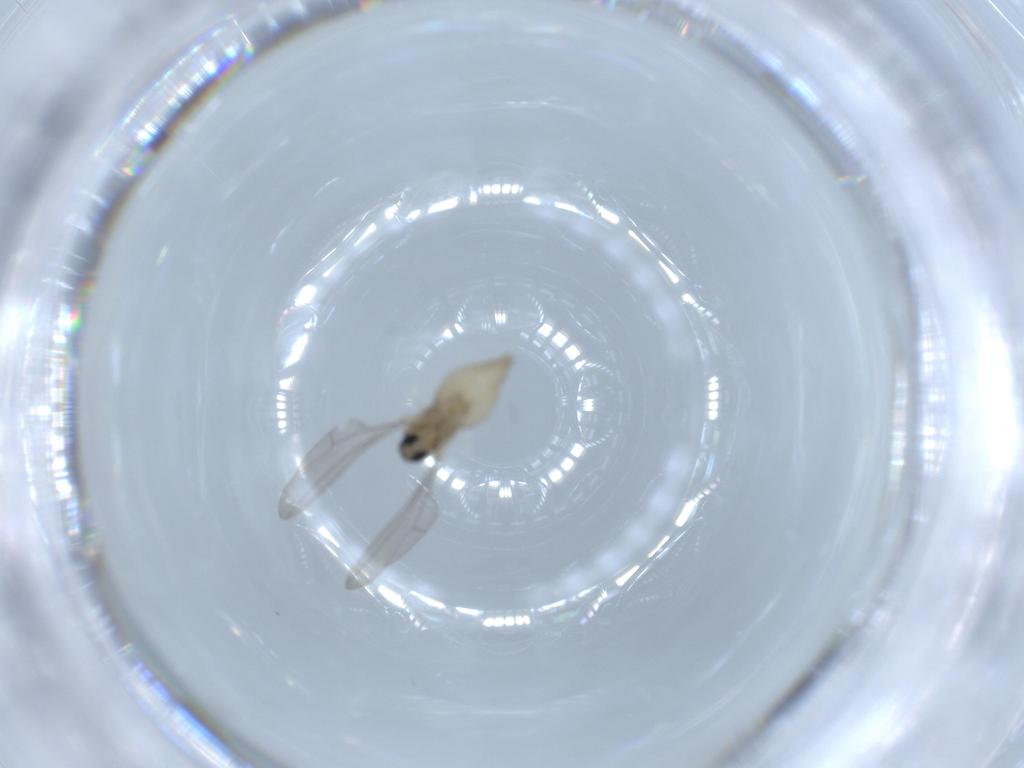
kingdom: Animalia
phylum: Arthropoda
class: Insecta
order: Diptera
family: Cecidomyiidae
